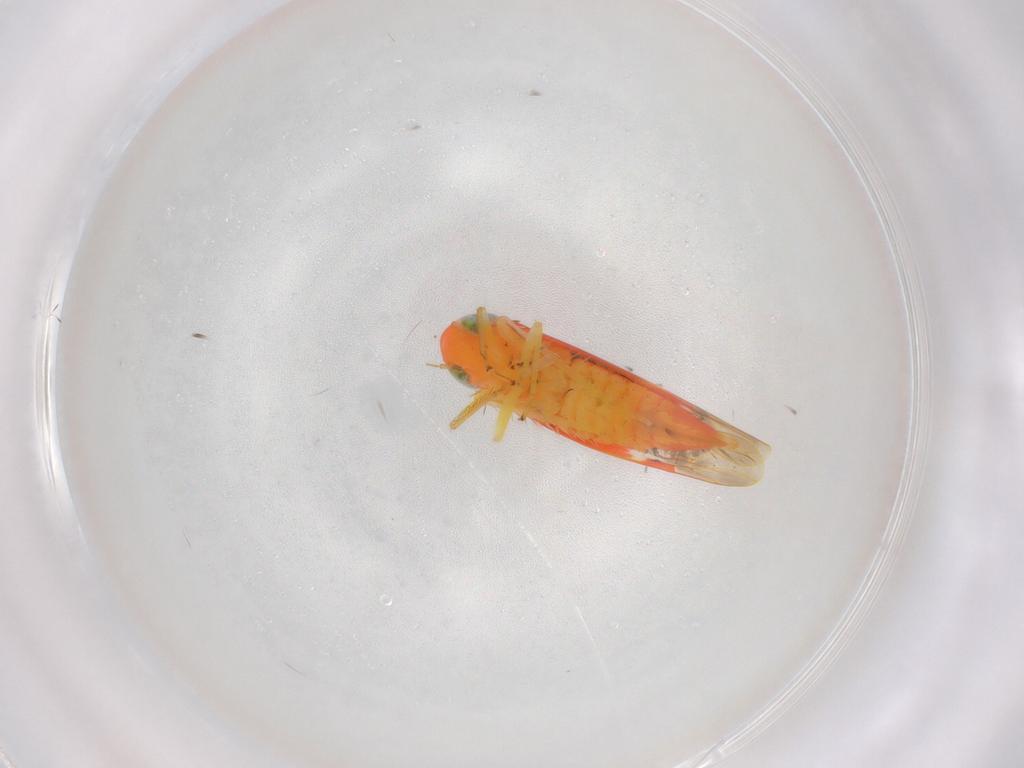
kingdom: Animalia
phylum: Arthropoda
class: Insecta
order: Hemiptera
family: Cicadellidae
